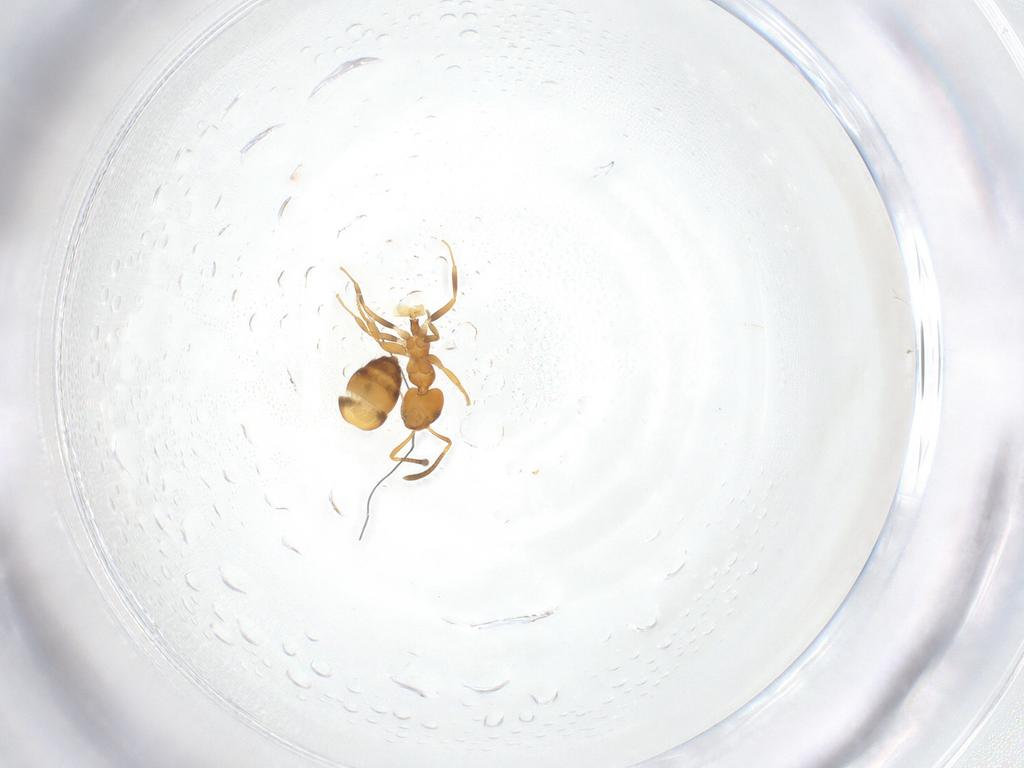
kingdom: Animalia
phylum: Arthropoda
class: Insecta
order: Hymenoptera
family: Formicidae
